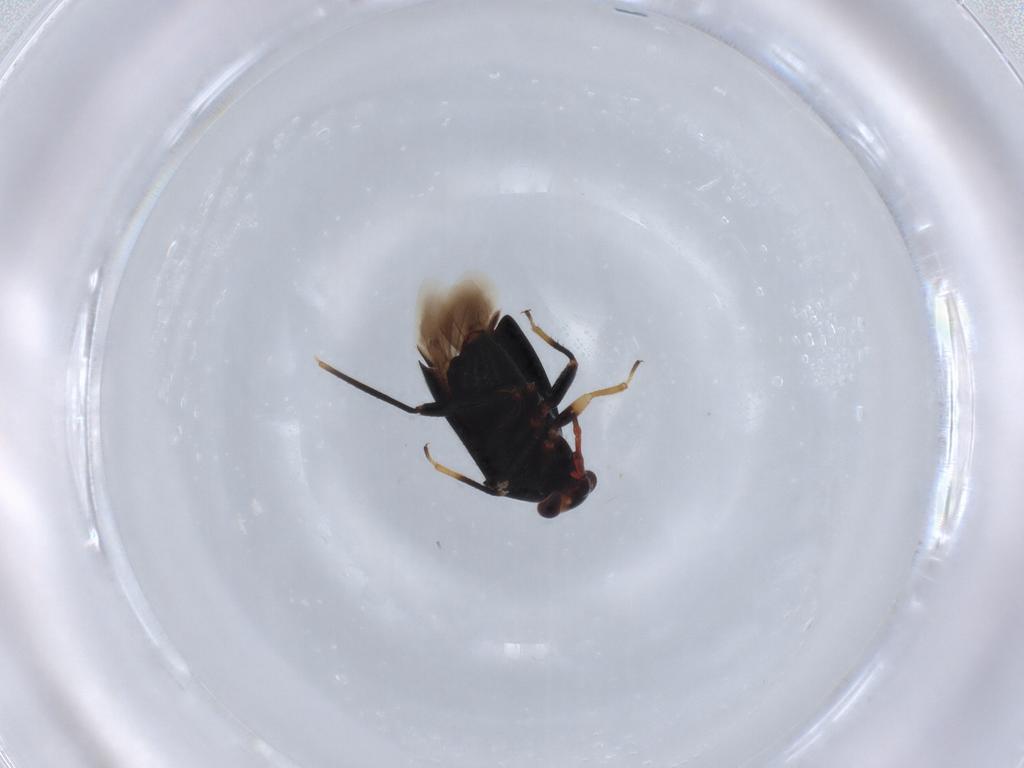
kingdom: Animalia
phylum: Arthropoda
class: Insecta
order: Hemiptera
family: Miridae
